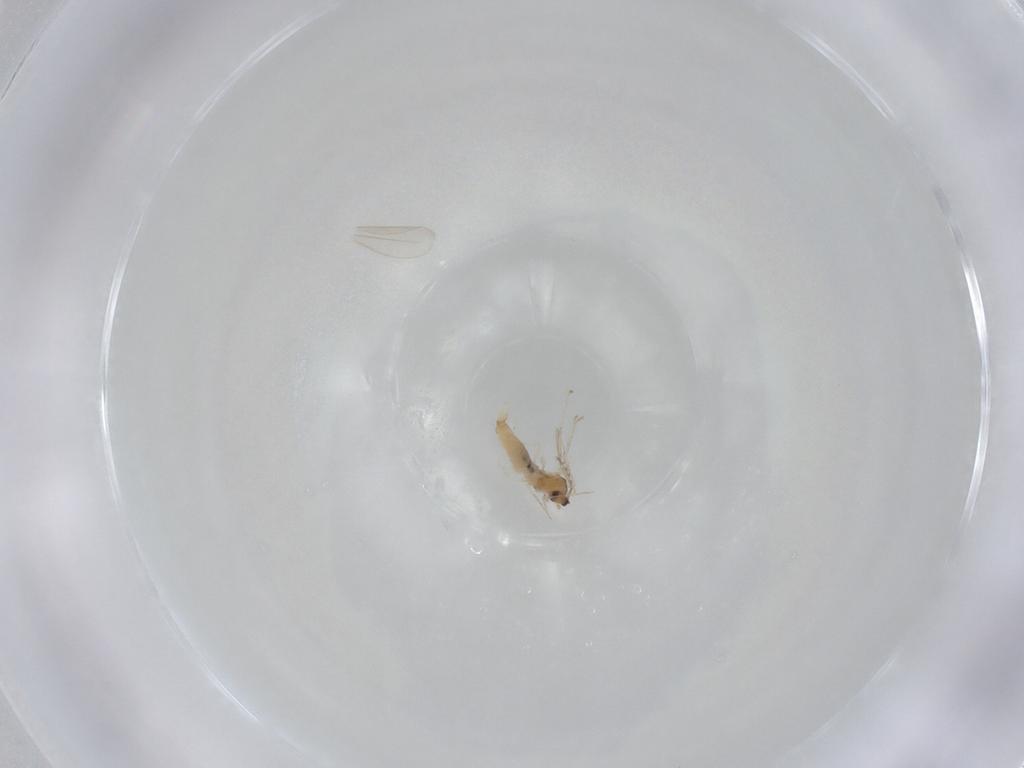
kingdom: Animalia
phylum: Arthropoda
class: Insecta
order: Diptera
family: Cecidomyiidae
